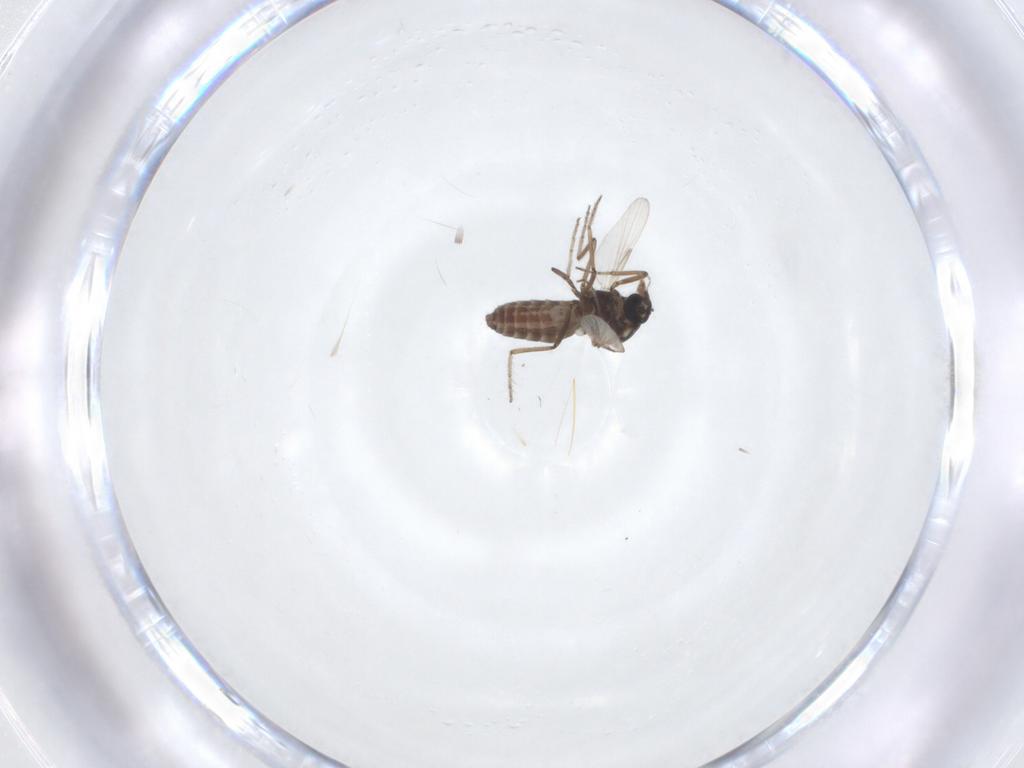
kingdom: Animalia
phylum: Arthropoda
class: Insecta
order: Diptera
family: Ceratopogonidae
